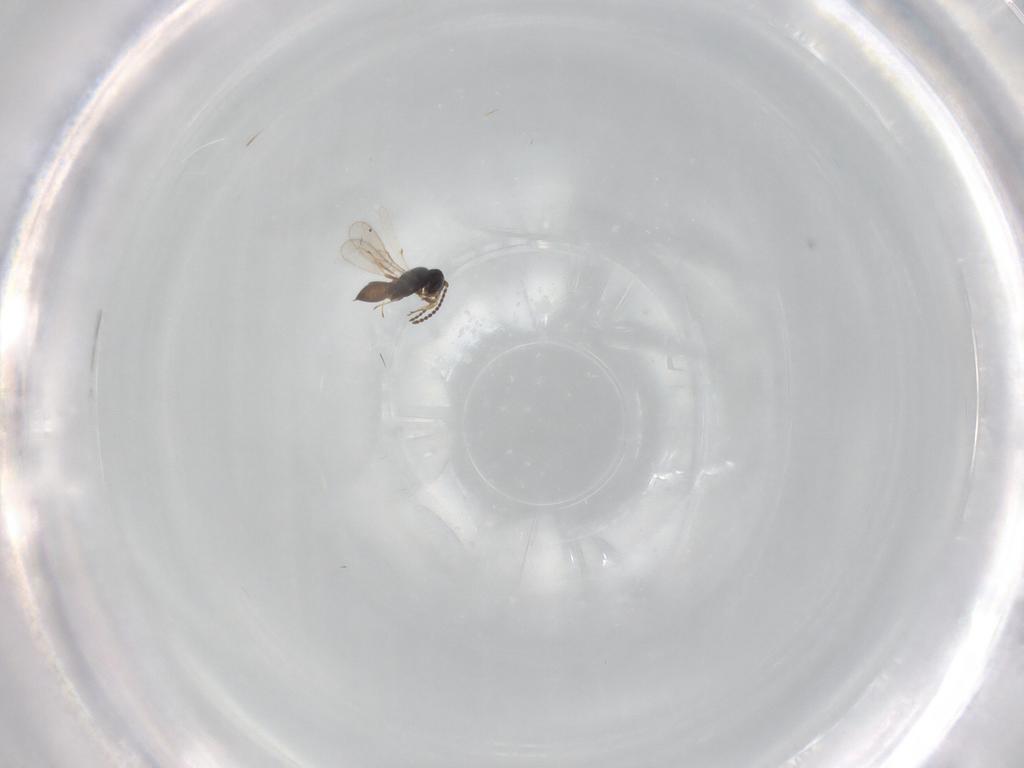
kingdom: Animalia
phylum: Arthropoda
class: Insecta
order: Hymenoptera
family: Scelionidae
